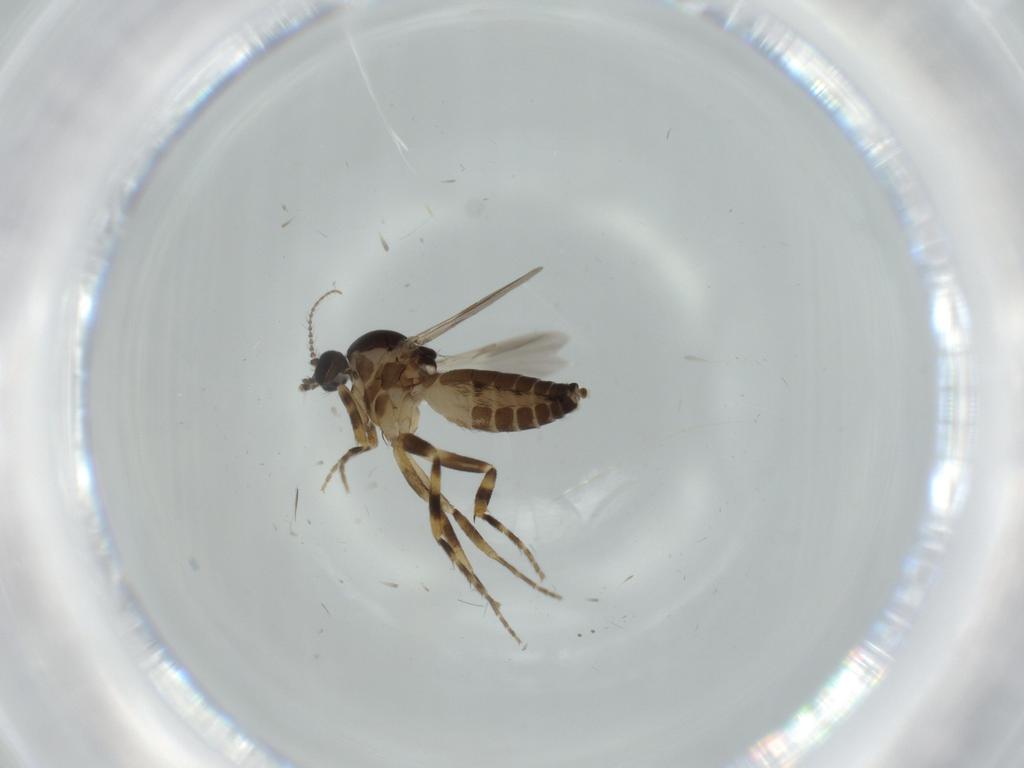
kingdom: Animalia
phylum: Arthropoda
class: Insecta
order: Diptera
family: Ceratopogonidae
